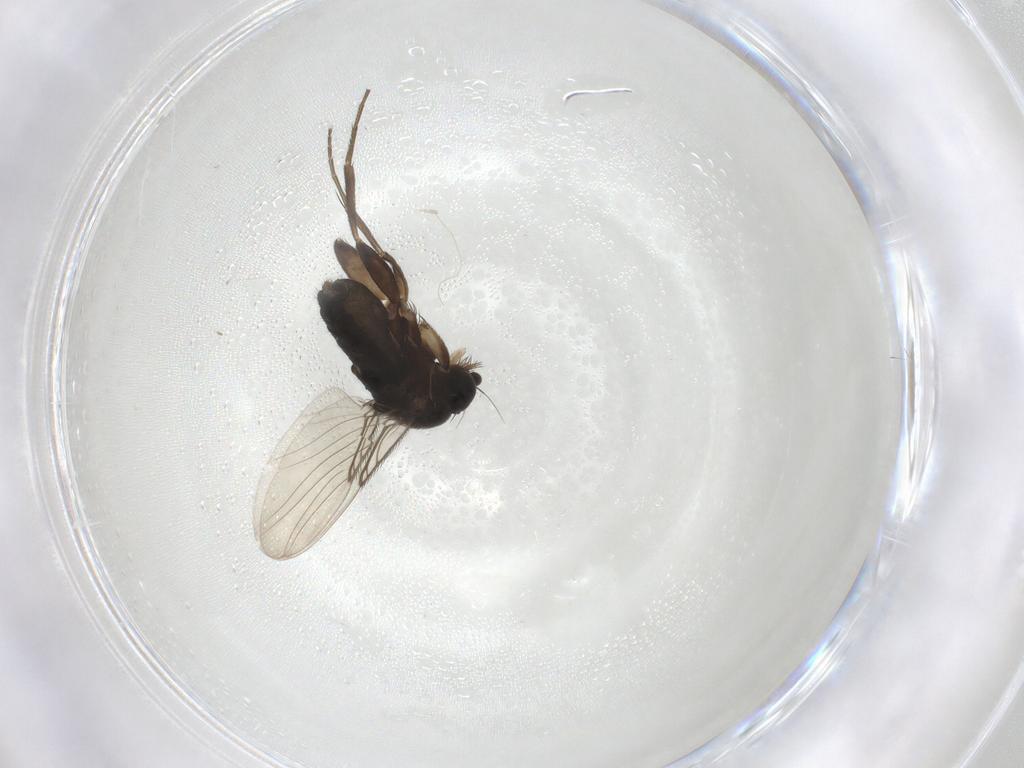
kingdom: Animalia
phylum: Arthropoda
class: Insecta
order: Diptera
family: Phoridae
